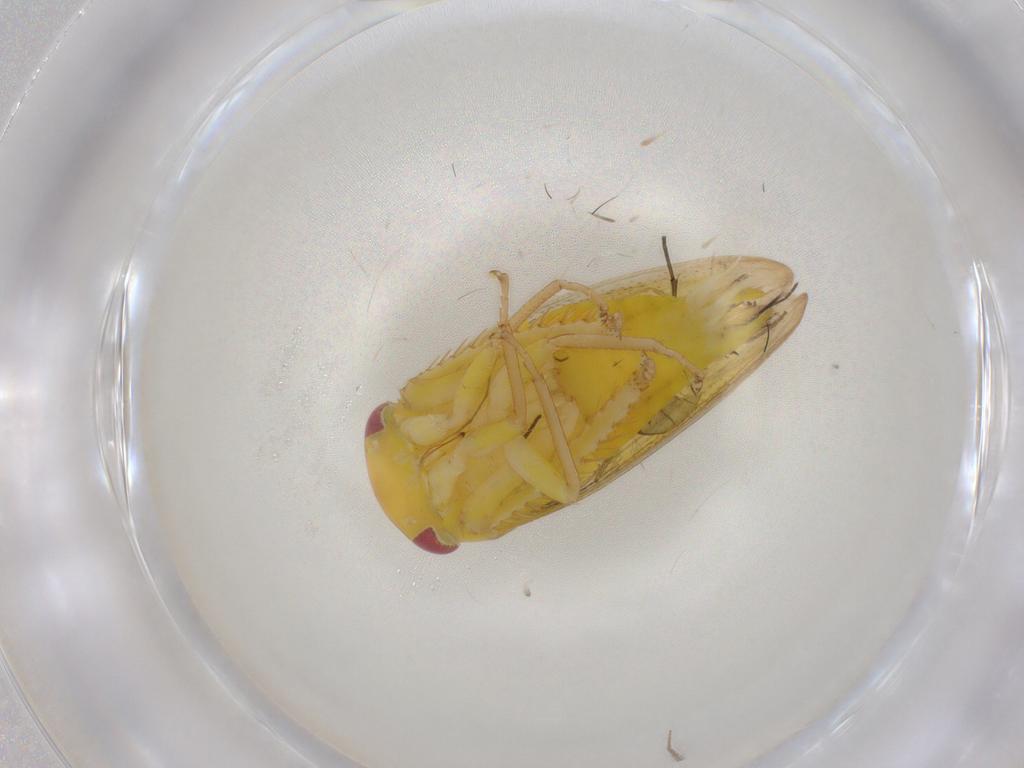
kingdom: Animalia
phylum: Arthropoda
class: Insecta
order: Hemiptera
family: Cicadellidae
